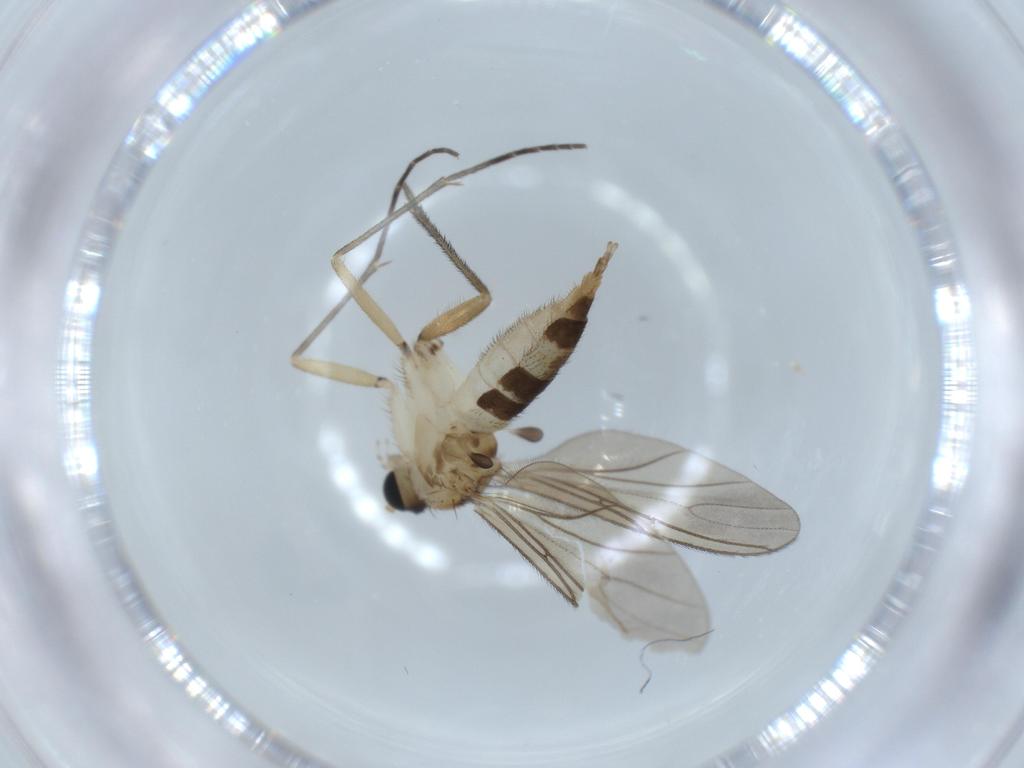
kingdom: Animalia
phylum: Arthropoda
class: Insecta
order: Diptera
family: Sciaridae
